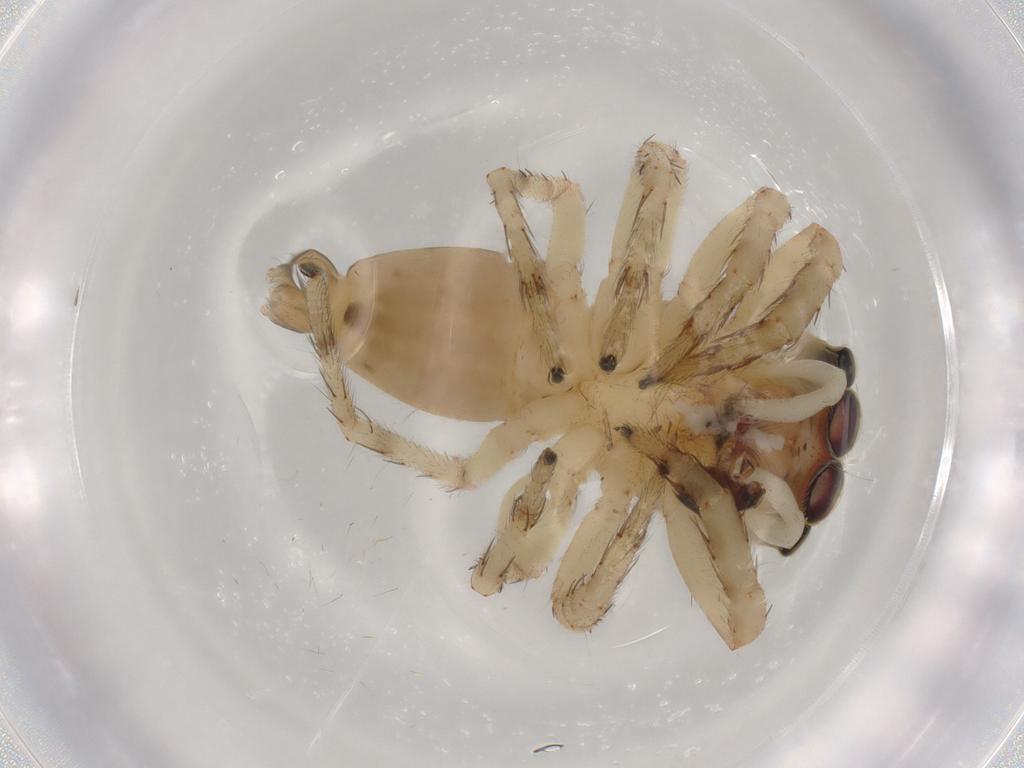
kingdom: Animalia
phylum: Arthropoda
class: Arachnida
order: Araneae
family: Salticidae
